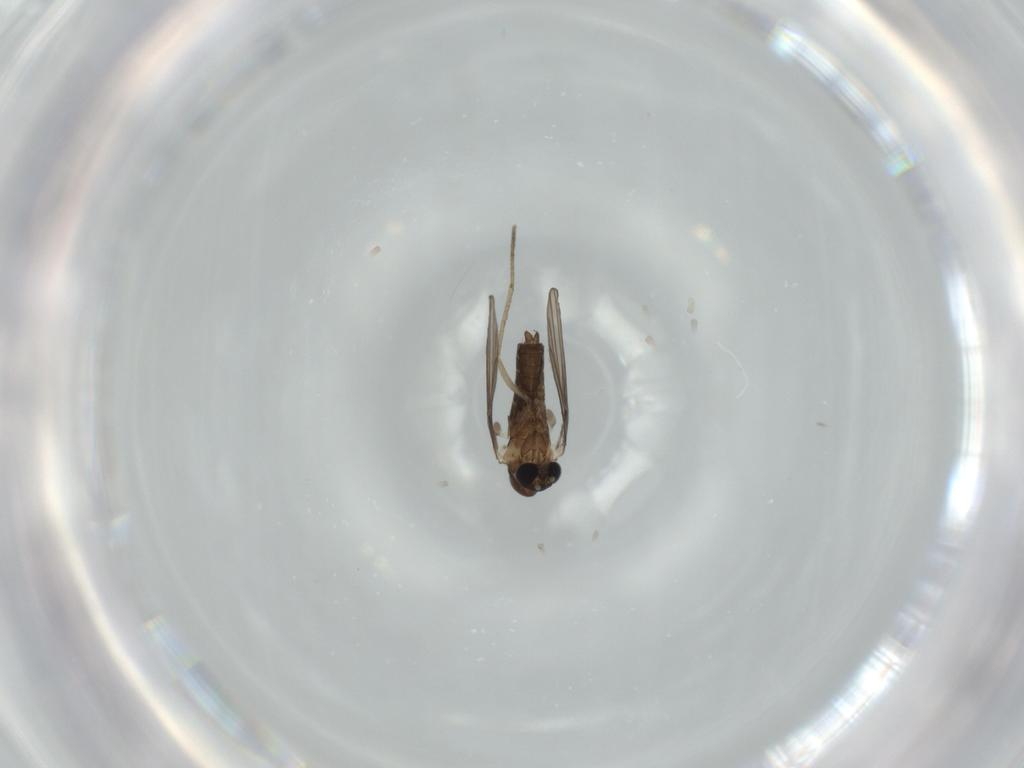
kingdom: Animalia
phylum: Arthropoda
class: Insecta
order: Diptera
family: Psychodidae
